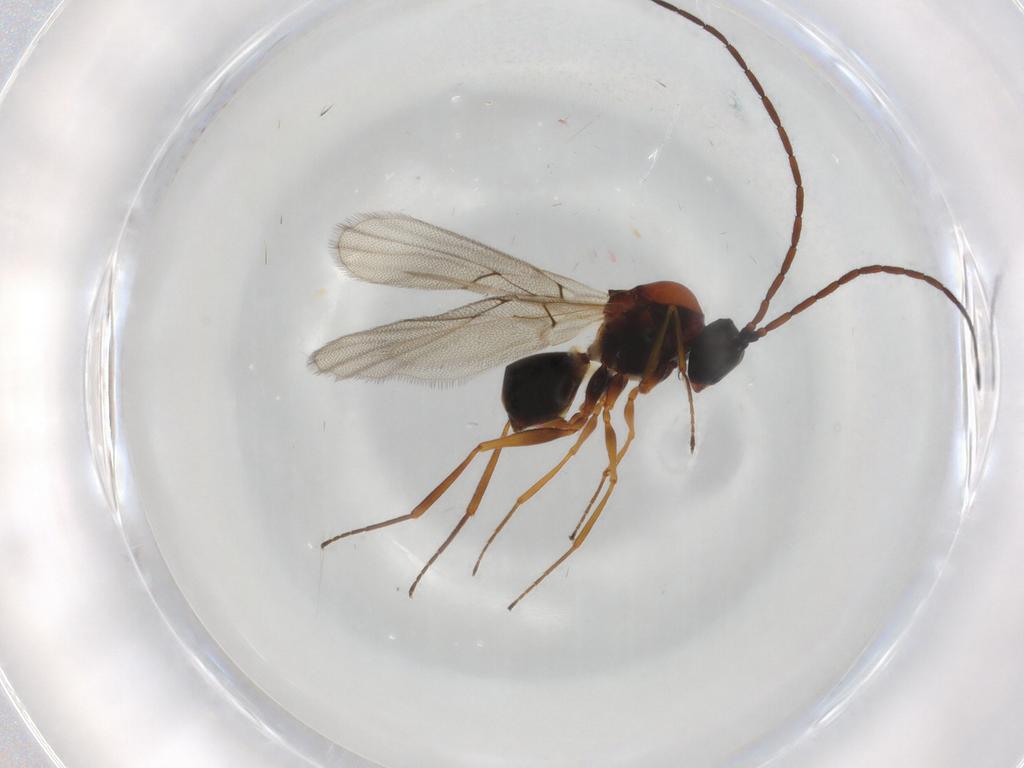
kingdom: Animalia
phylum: Arthropoda
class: Insecta
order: Hymenoptera
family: Figitidae
